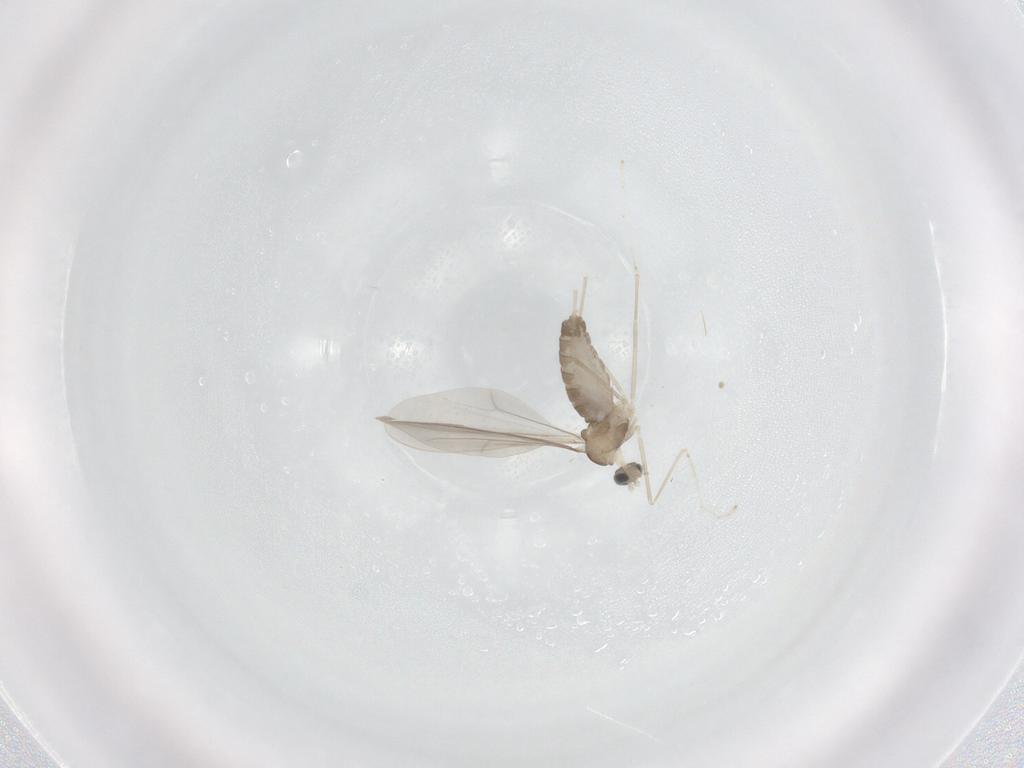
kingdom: Animalia
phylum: Arthropoda
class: Insecta
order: Diptera
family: Cecidomyiidae
